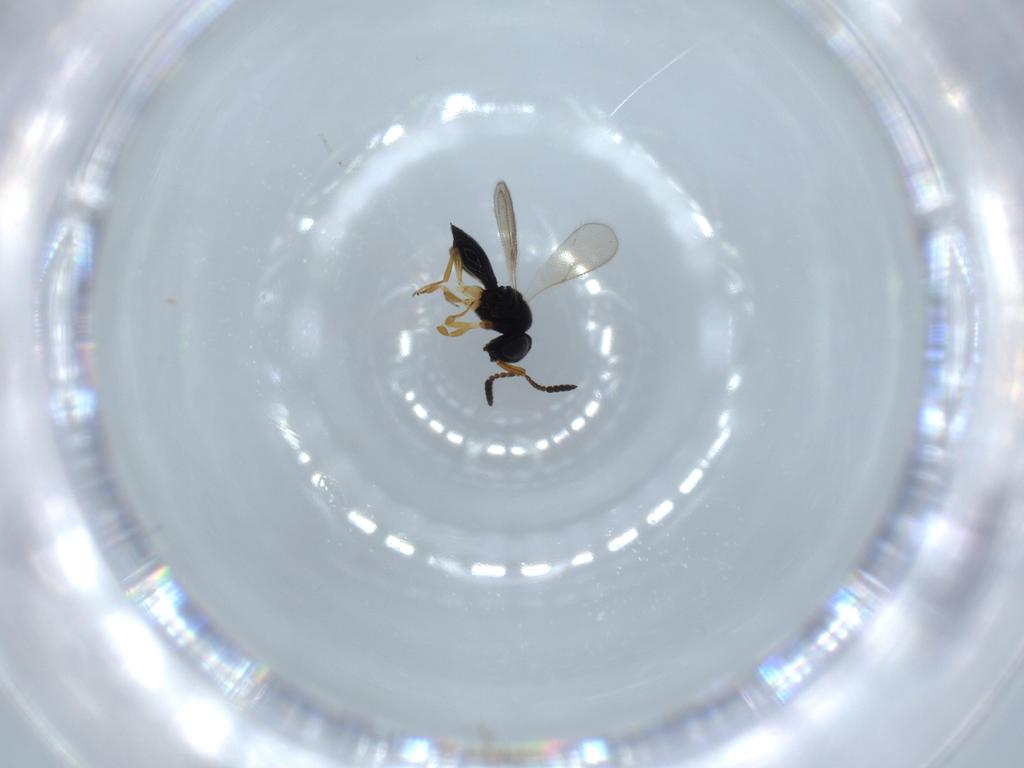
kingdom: Animalia
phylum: Arthropoda
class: Insecta
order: Hymenoptera
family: Scelionidae
